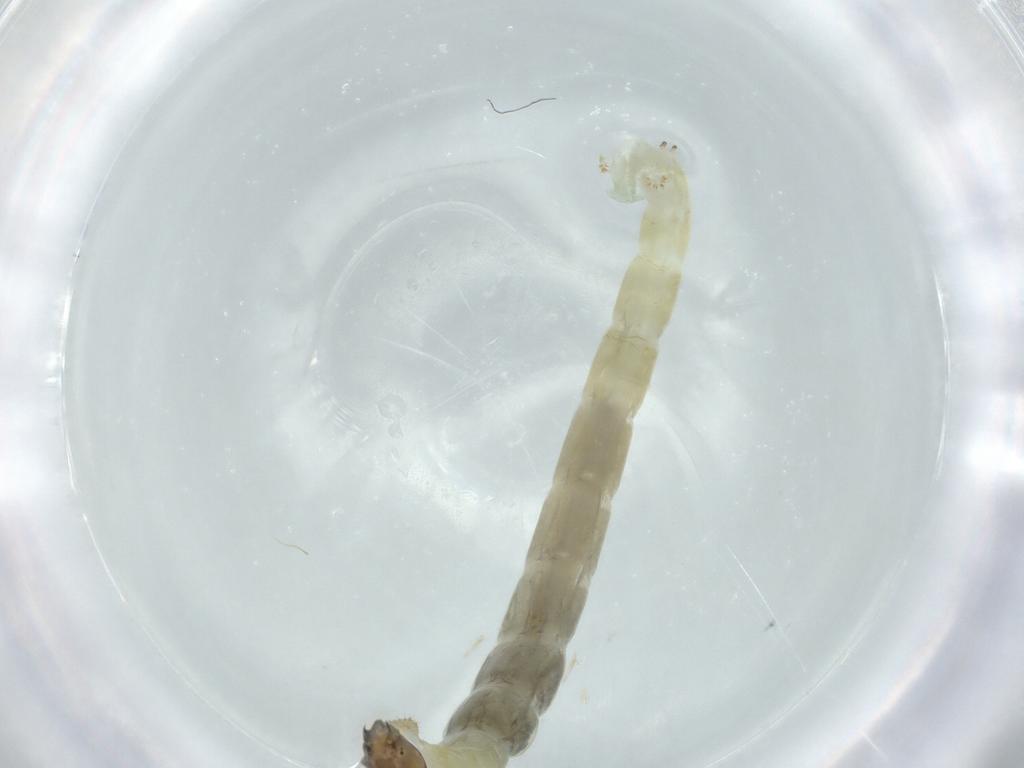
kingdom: Animalia
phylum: Arthropoda
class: Insecta
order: Diptera
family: Chironomidae
